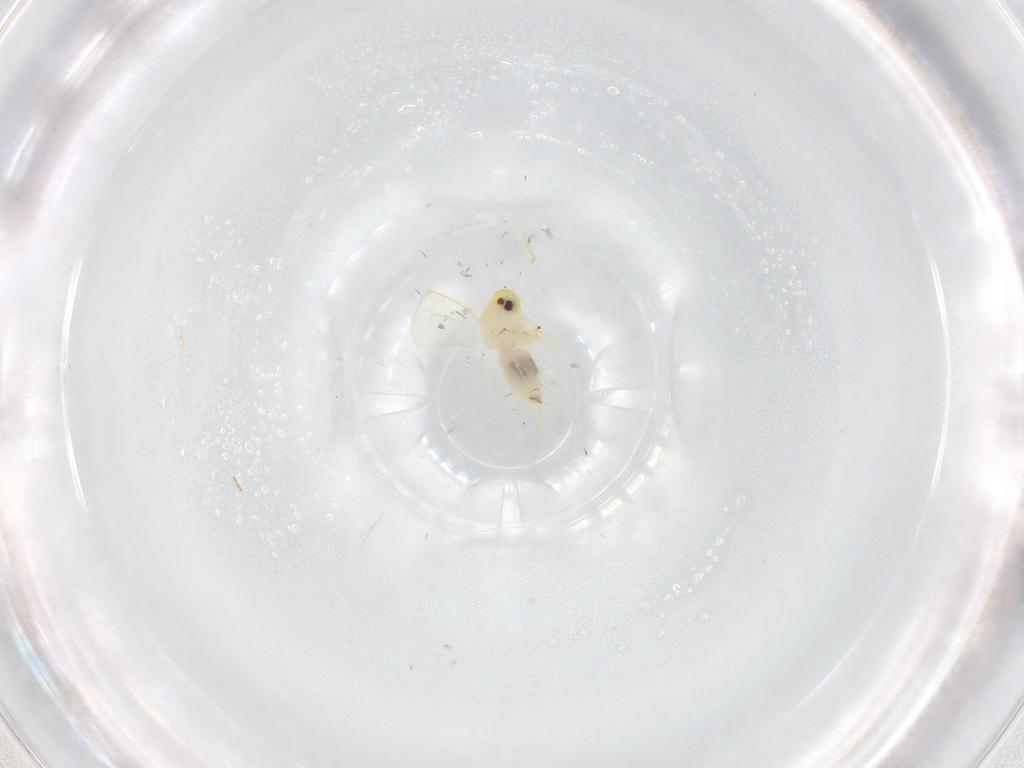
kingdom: Animalia
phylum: Arthropoda
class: Insecta
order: Hemiptera
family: Aleyrodidae
